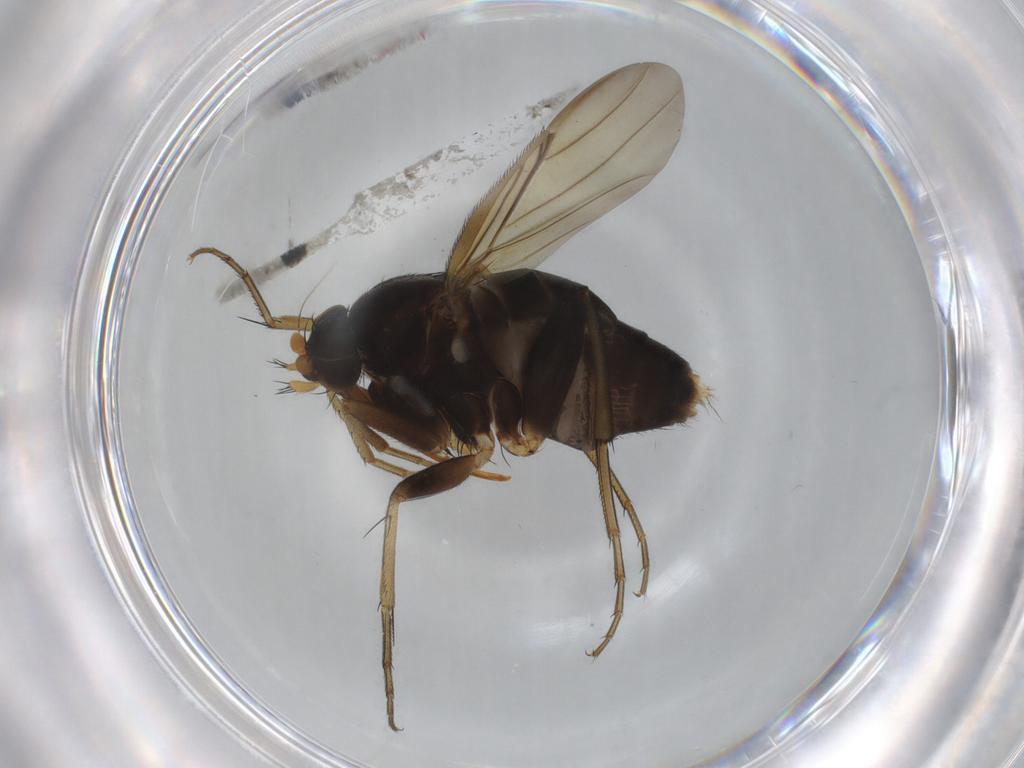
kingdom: Animalia
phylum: Arthropoda
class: Insecta
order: Diptera
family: Phoridae
